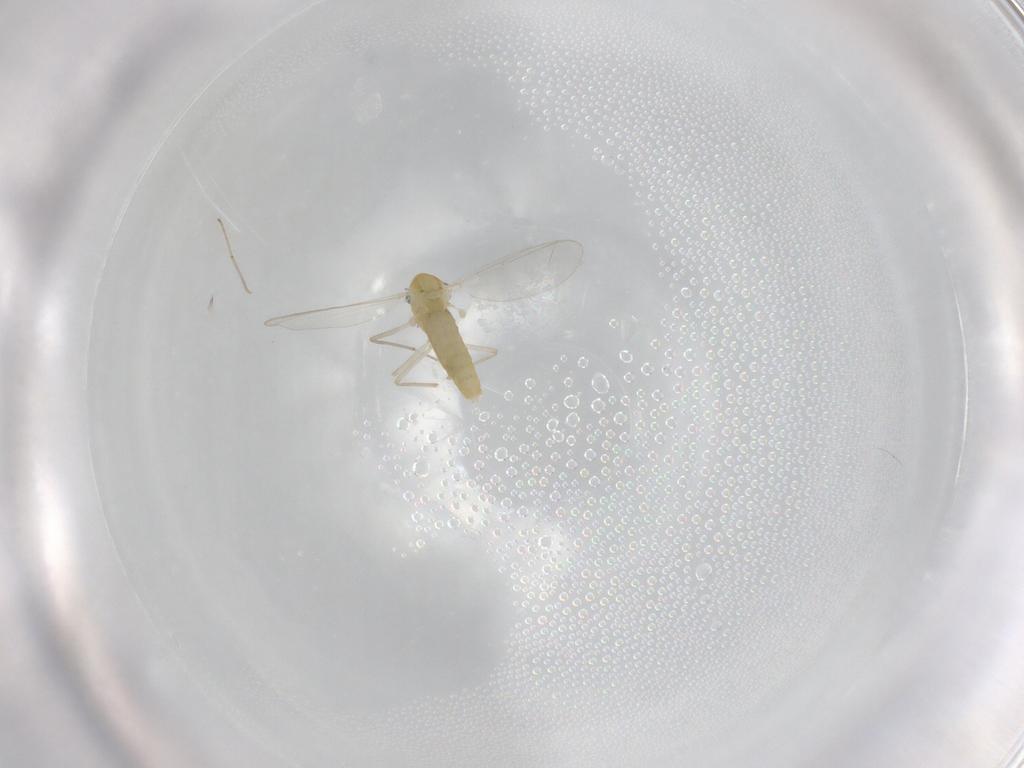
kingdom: Animalia
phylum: Arthropoda
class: Insecta
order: Diptera
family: Chironomidae
